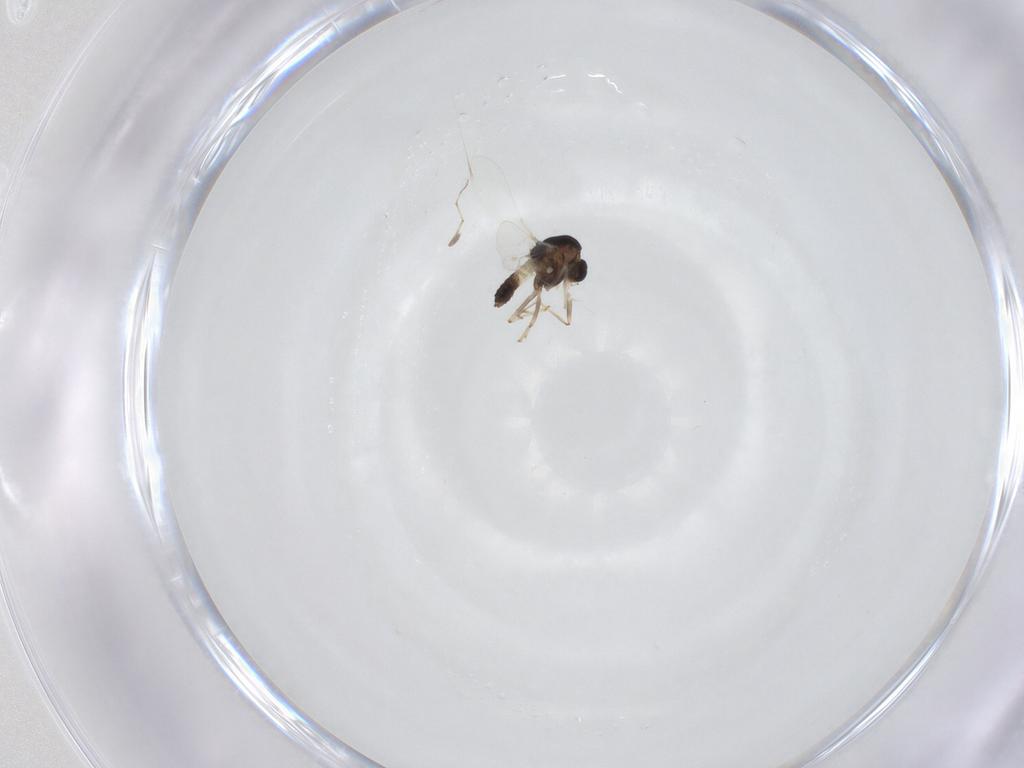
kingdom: Animalia
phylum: Arthropoda
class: Insecta
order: Diptera
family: Chironomidae
